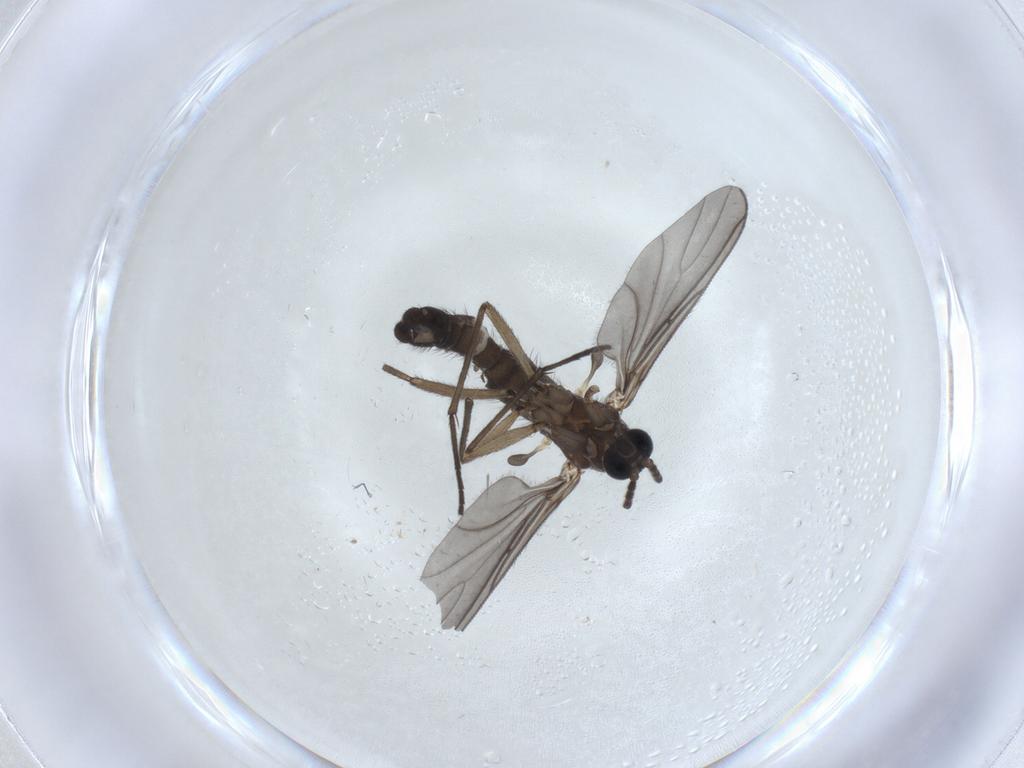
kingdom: Animalia
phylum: Arthropoda
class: Insecta
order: Diptera
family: Sciaridae
